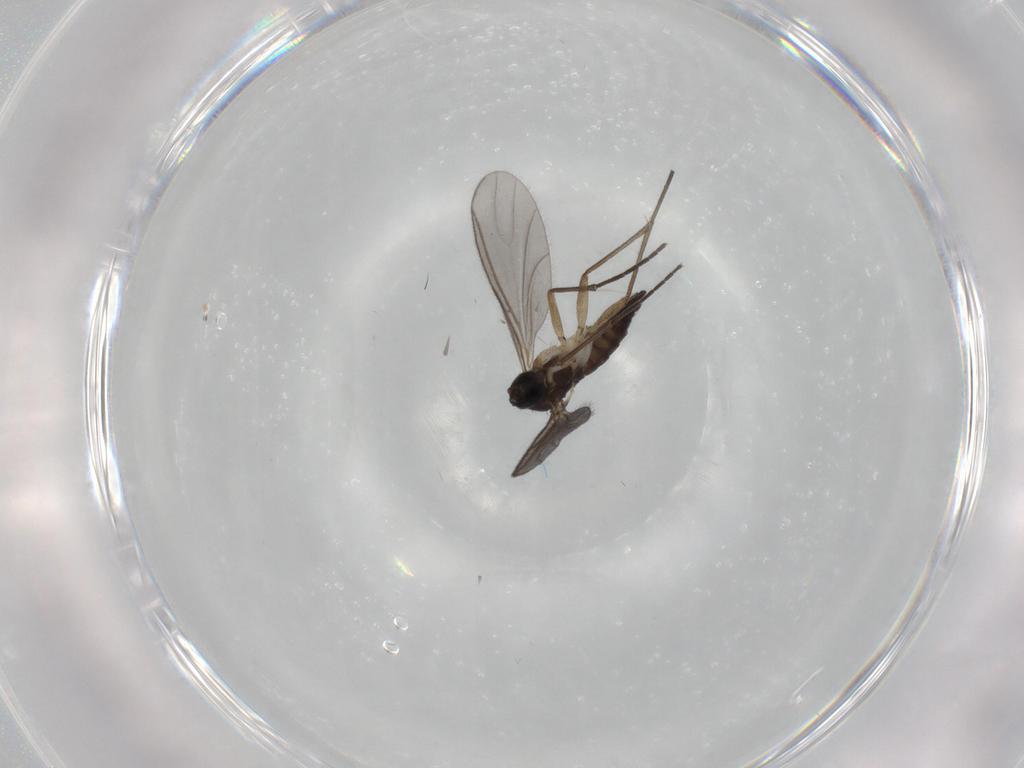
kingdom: Animalia
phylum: Arthropoda
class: Insecta
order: Diptera
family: Sciaridae
